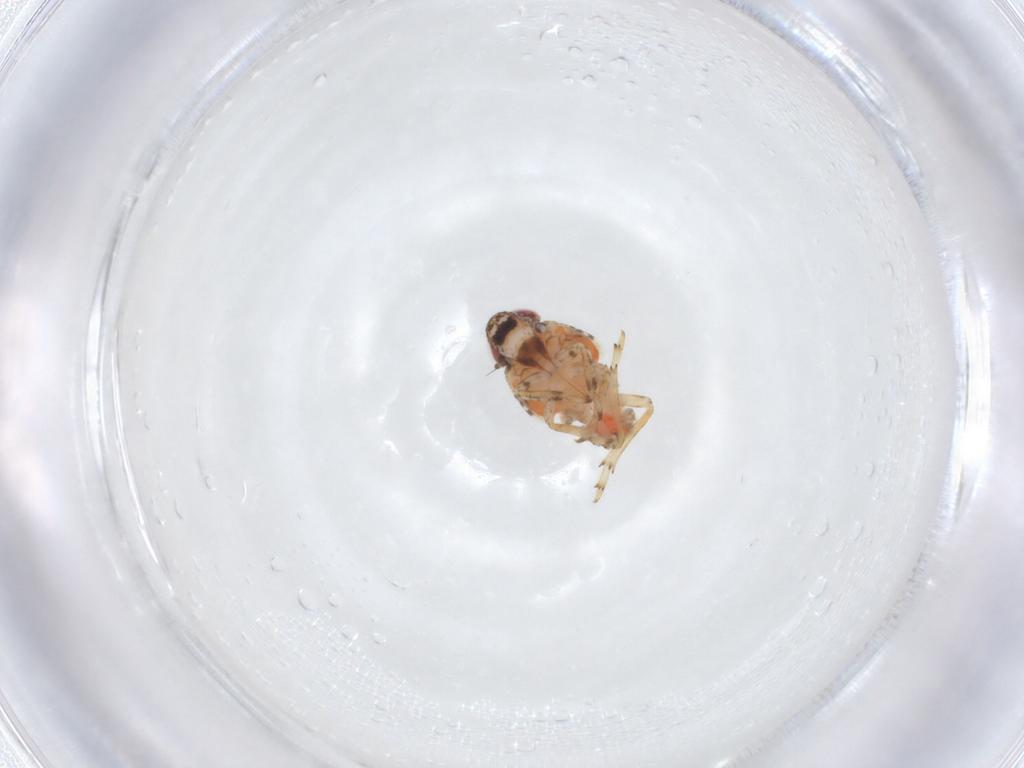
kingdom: Animalia
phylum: Arthropoda
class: Insecta
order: Hemiptera
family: Issidae
